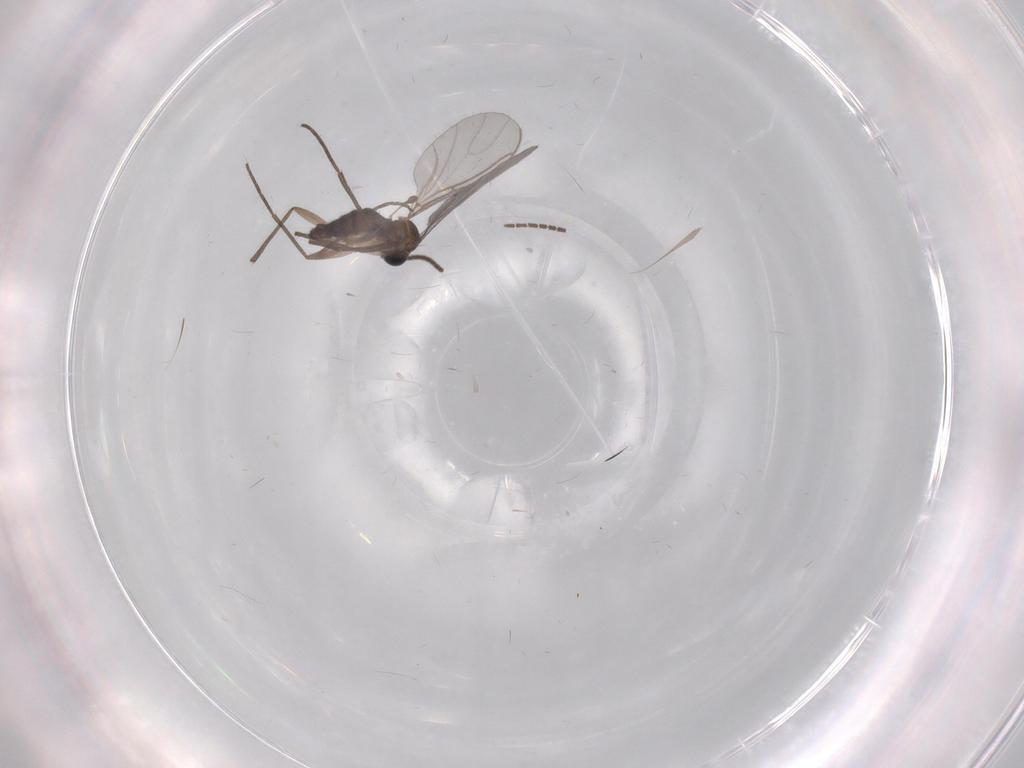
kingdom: Animalia
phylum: Arthropoda
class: Insecta
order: Diptera
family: Sciaridae
